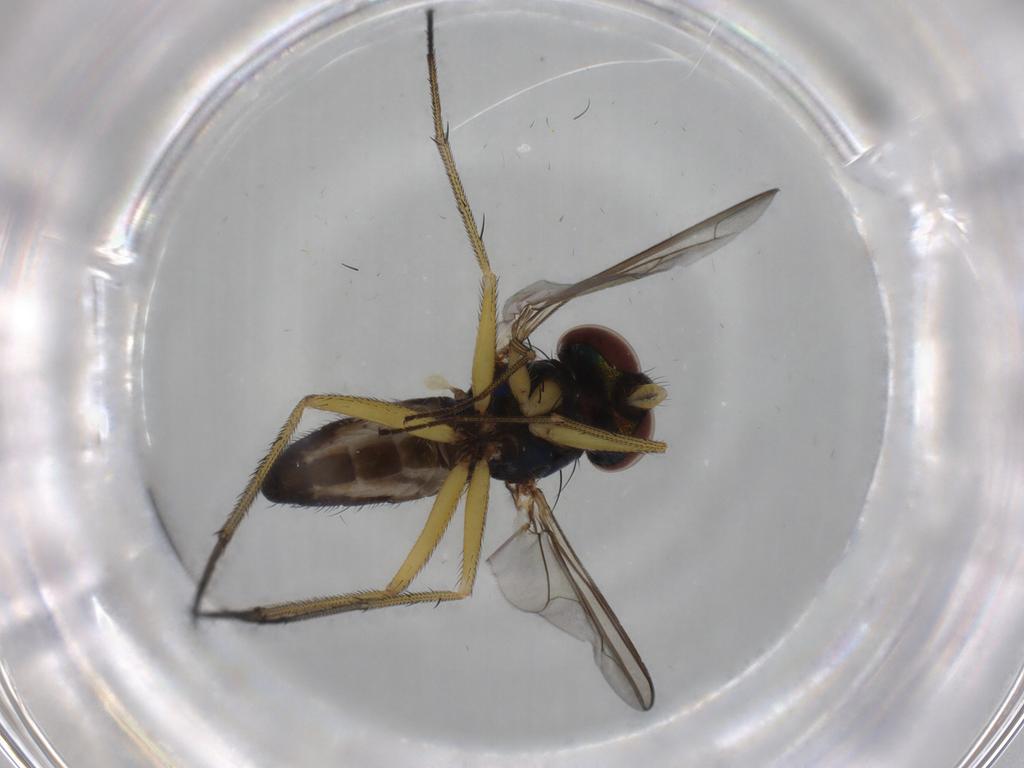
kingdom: Animalia
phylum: Arthropoda
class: Insecta
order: Diptera
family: Dolichopodidae
